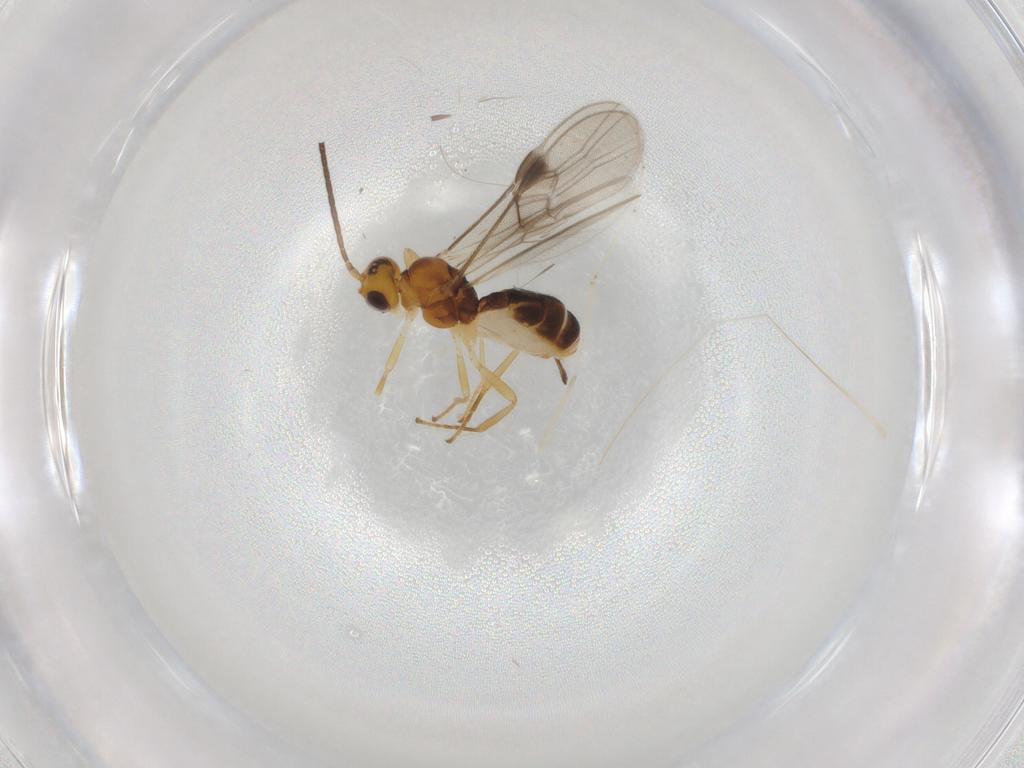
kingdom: Animalia
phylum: Arthropoda
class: Insecta
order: Hymenoptera
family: Braconidae
